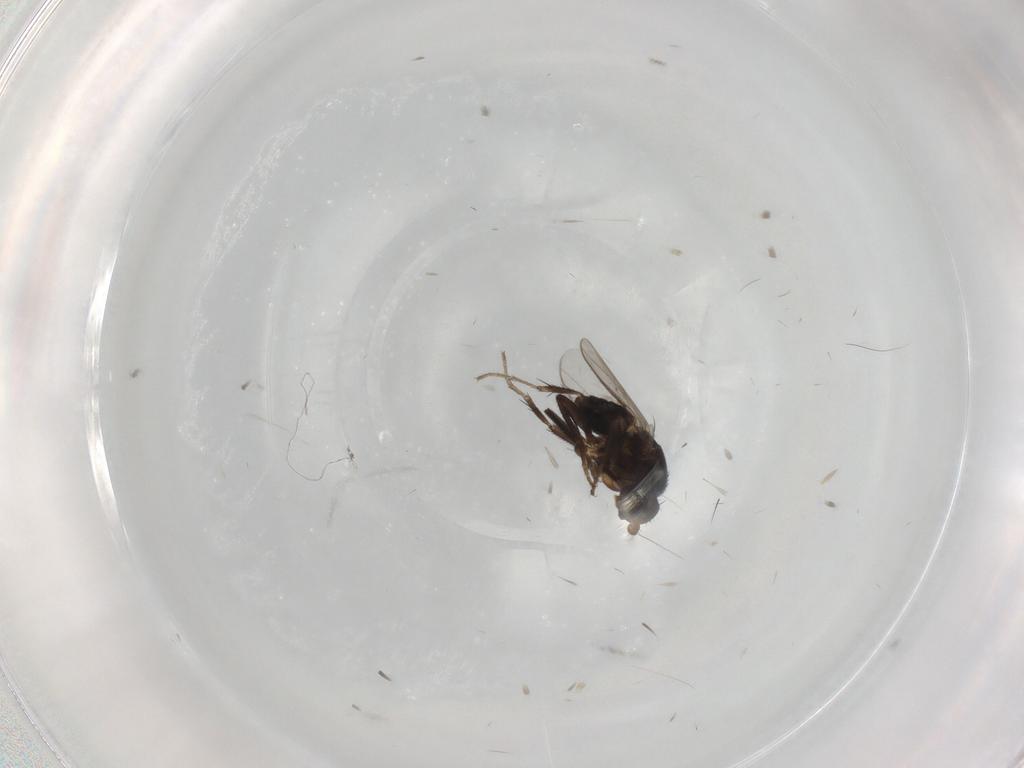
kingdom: Animalia
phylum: Arthropoda
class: Insecta
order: Diptera
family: Sphaeroceridae
